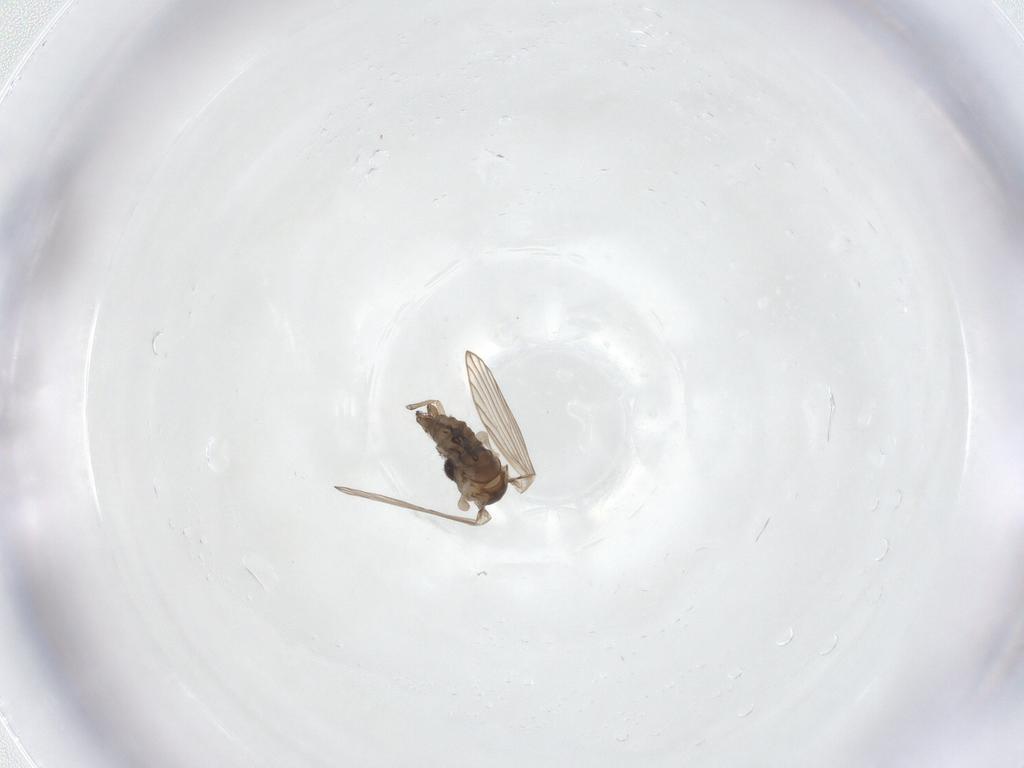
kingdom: Animalia
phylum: Arthropoda
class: Insecta
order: Diptera
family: Psychodidae
